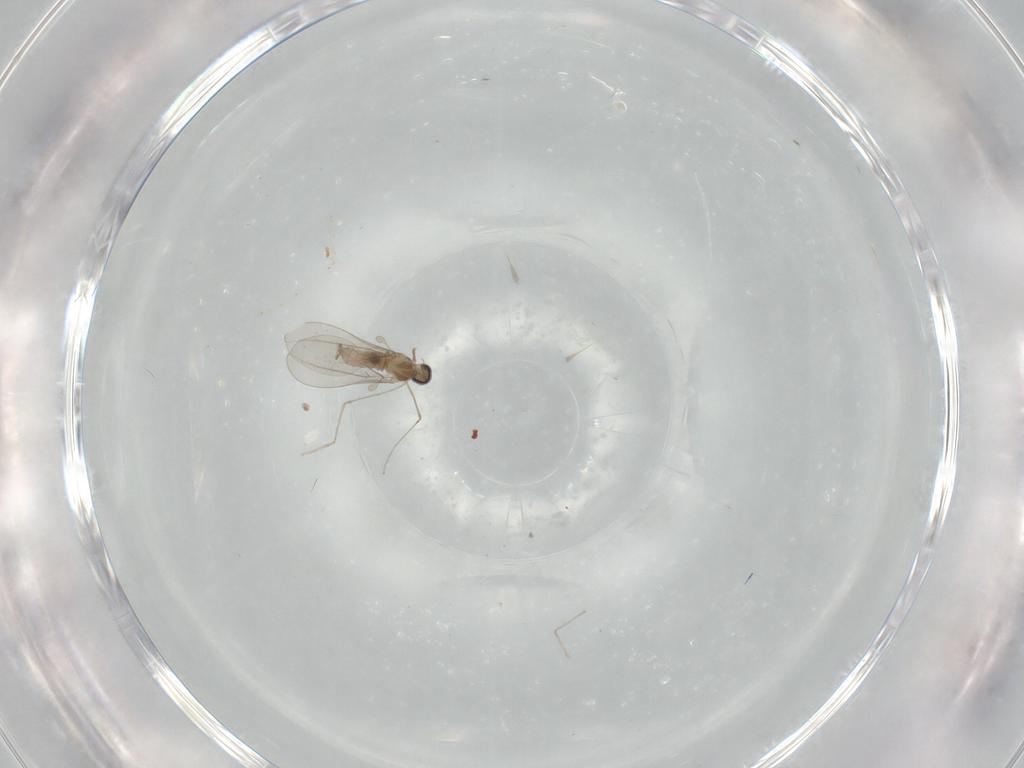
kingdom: Animalia
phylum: Arthropoda
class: Insecta
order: Diptera
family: Cecidomyiidae
